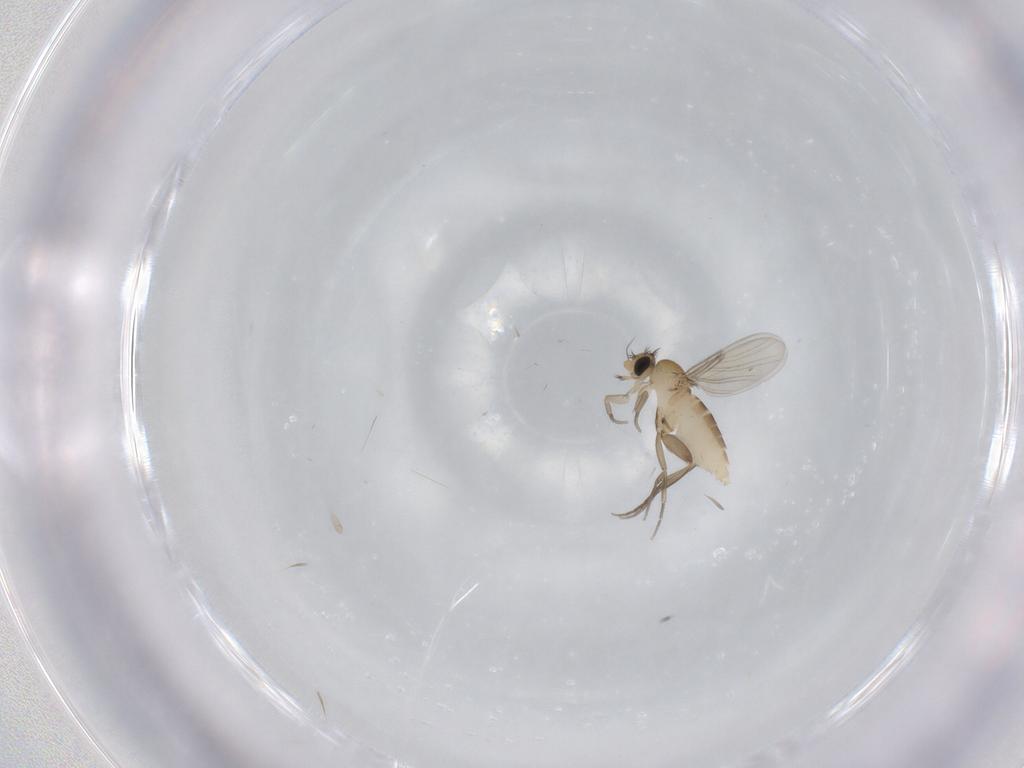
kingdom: Animalia
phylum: Arthropoda
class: Insecta
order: Diptera
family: Phoridae
